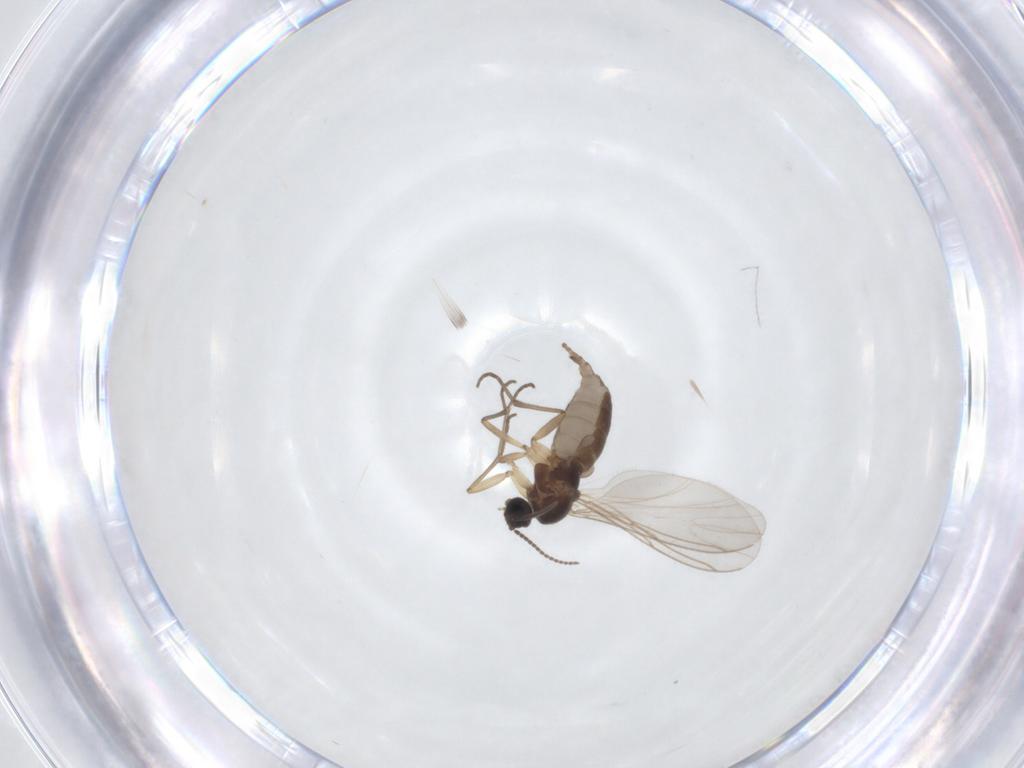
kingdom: Animalia
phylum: Arthropoda
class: Insecta
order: Diptera
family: Sciaridae
